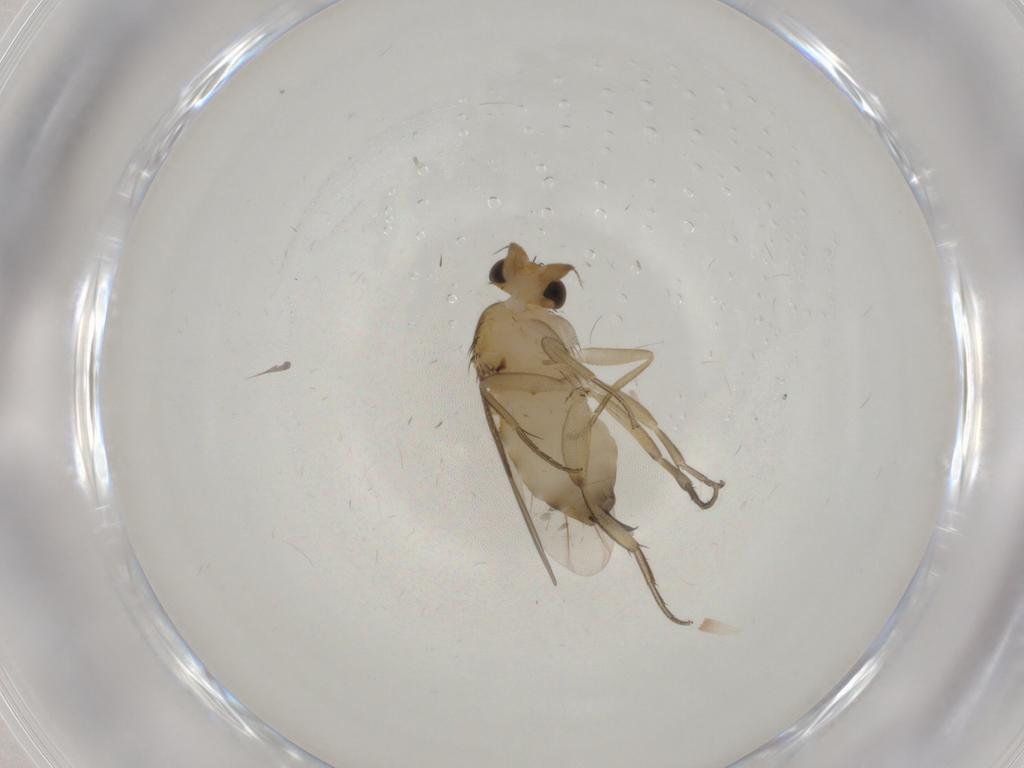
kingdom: Animalia
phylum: Arthropoda
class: Insecta
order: Diptera
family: Phoridae
